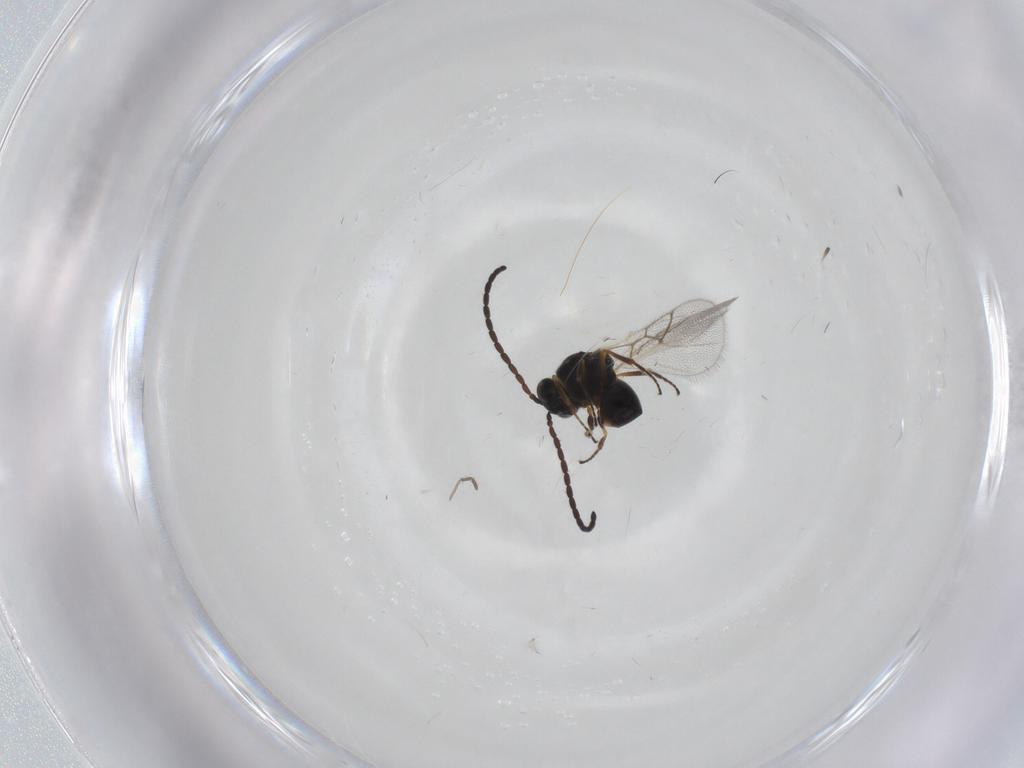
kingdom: Animalia
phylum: Arthropoda
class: Insecta
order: Hymenoptera
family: Figitidae
